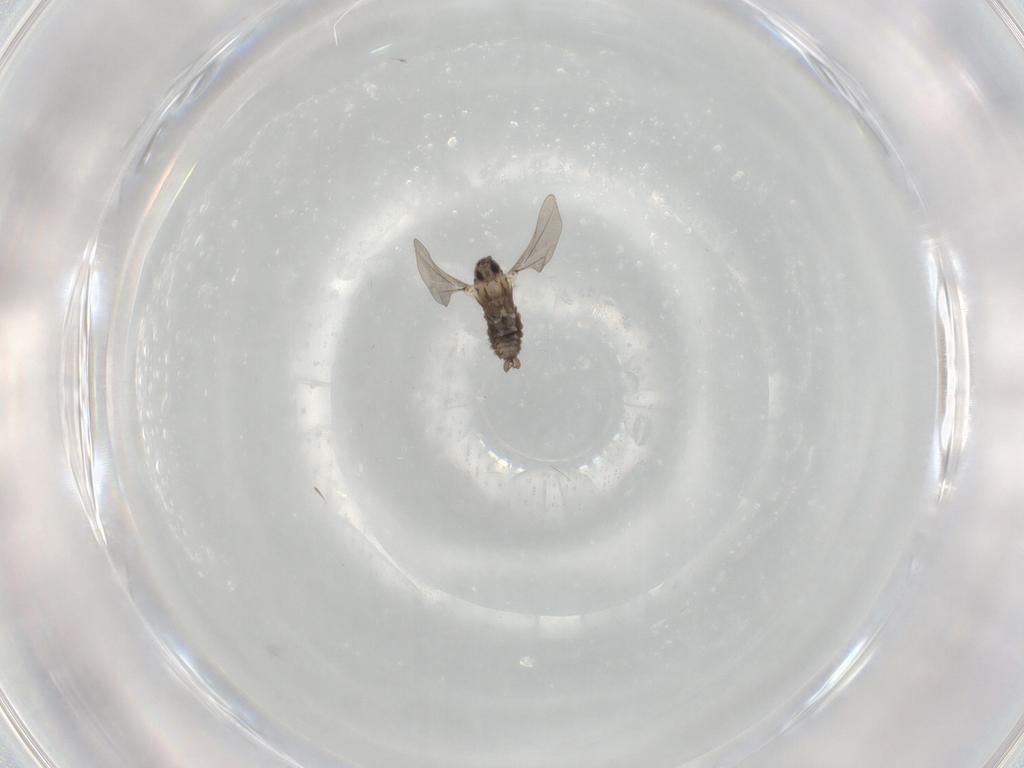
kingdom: Animalia
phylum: Arthropoda
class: Insecta
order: Diptera
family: Cecidomyiidae
